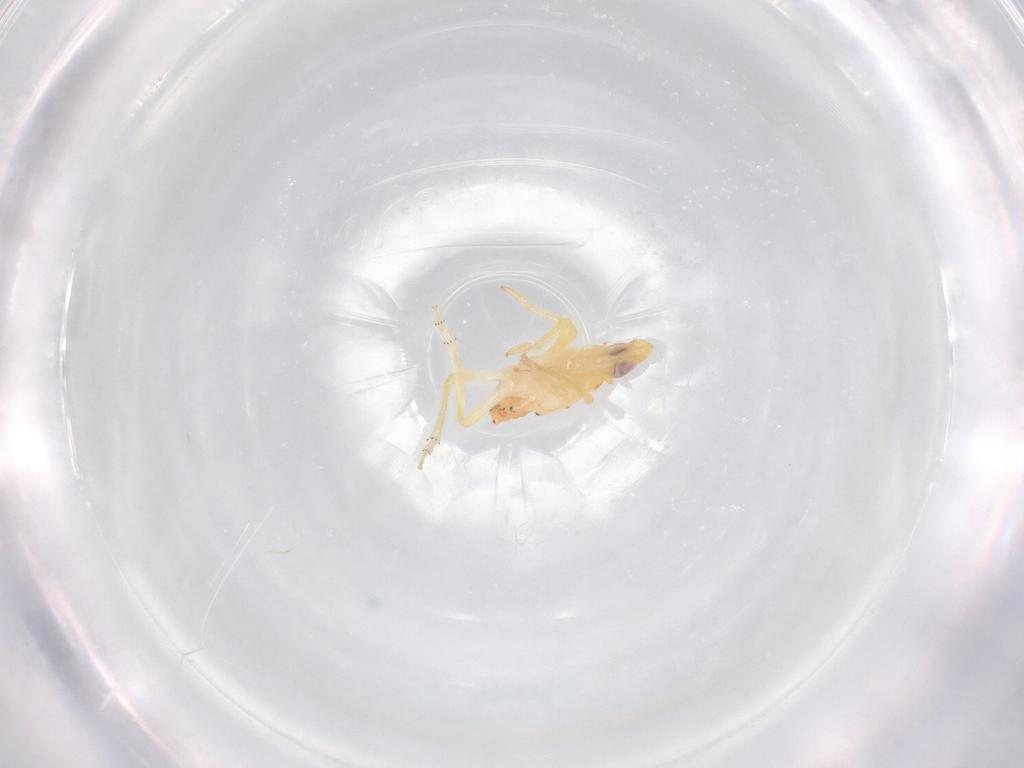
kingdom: Animalia
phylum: Arthropoda
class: Insecta
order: Hemiptera
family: Tropiduchidae
